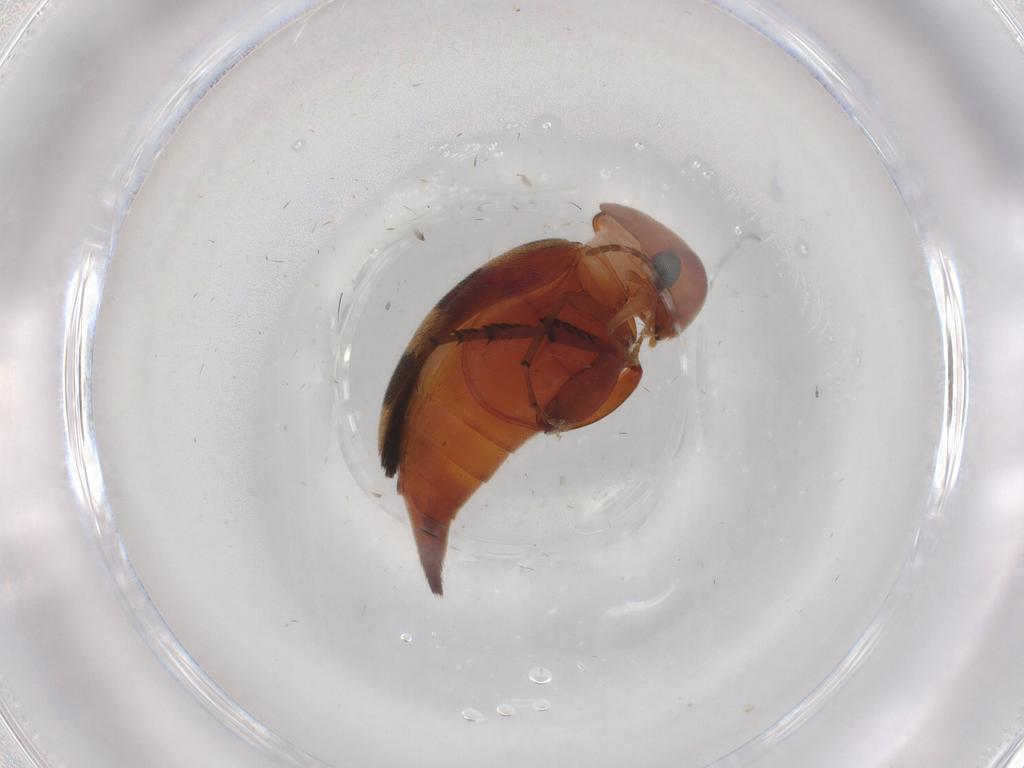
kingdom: Animalia
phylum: Arthropoda
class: Insecta
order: Coleoptera
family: Mordellidae
